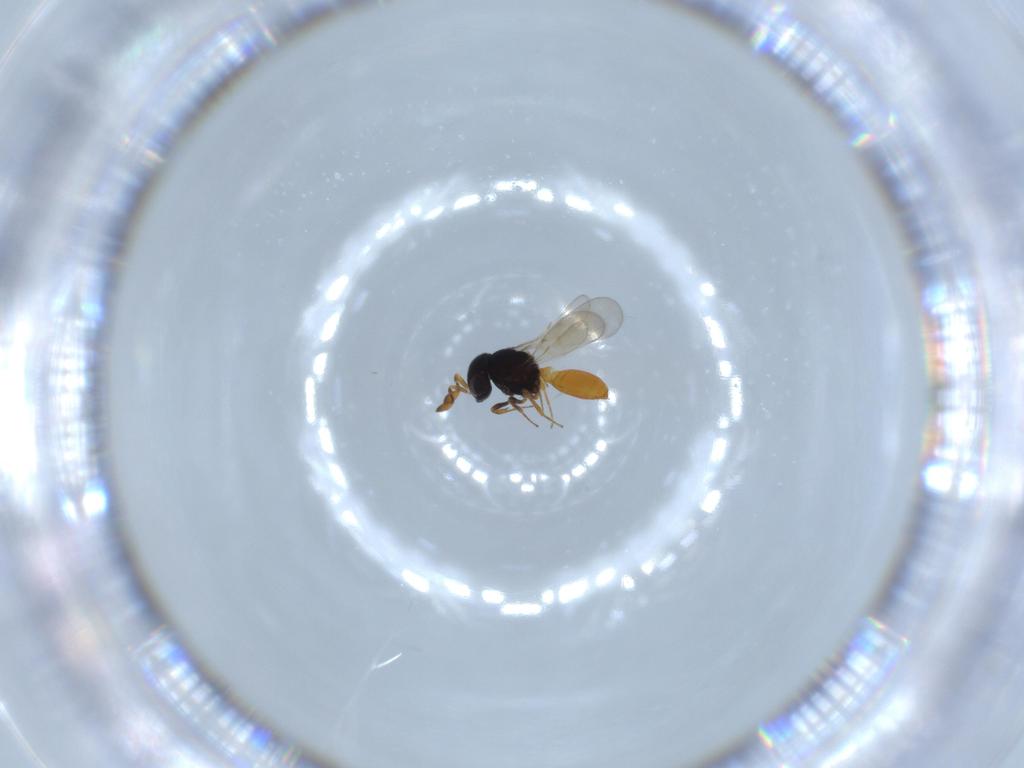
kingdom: Animalia
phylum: Arthropoda
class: Insecta
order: Hymenoptera
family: Scelionidae
